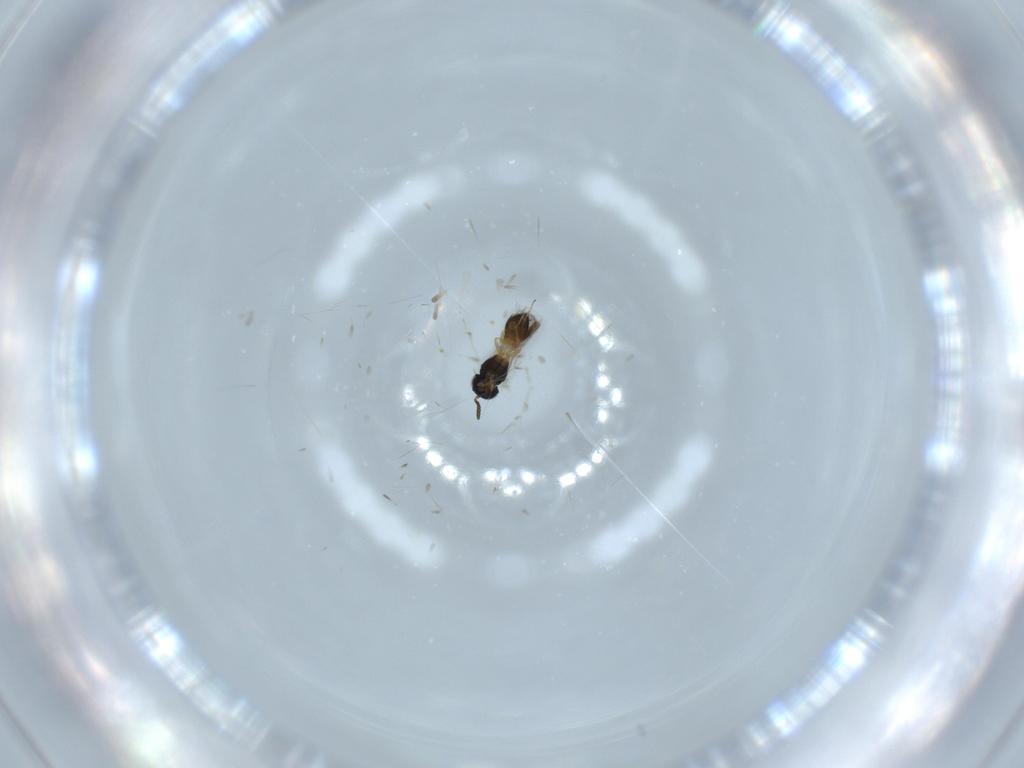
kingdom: Animalia
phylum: Arthropoda
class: Insecta
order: Hymenoptera
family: Scelionidae
